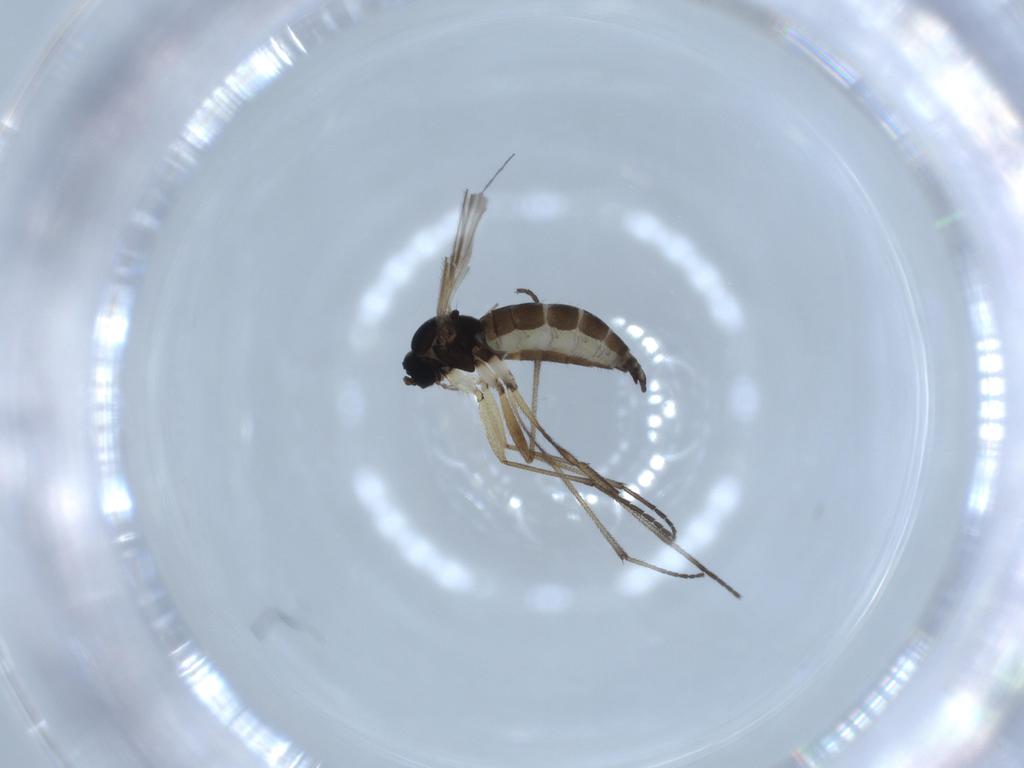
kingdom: Animalia
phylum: Arthropoda
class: Insecta
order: Diptera
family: Sciaridae
